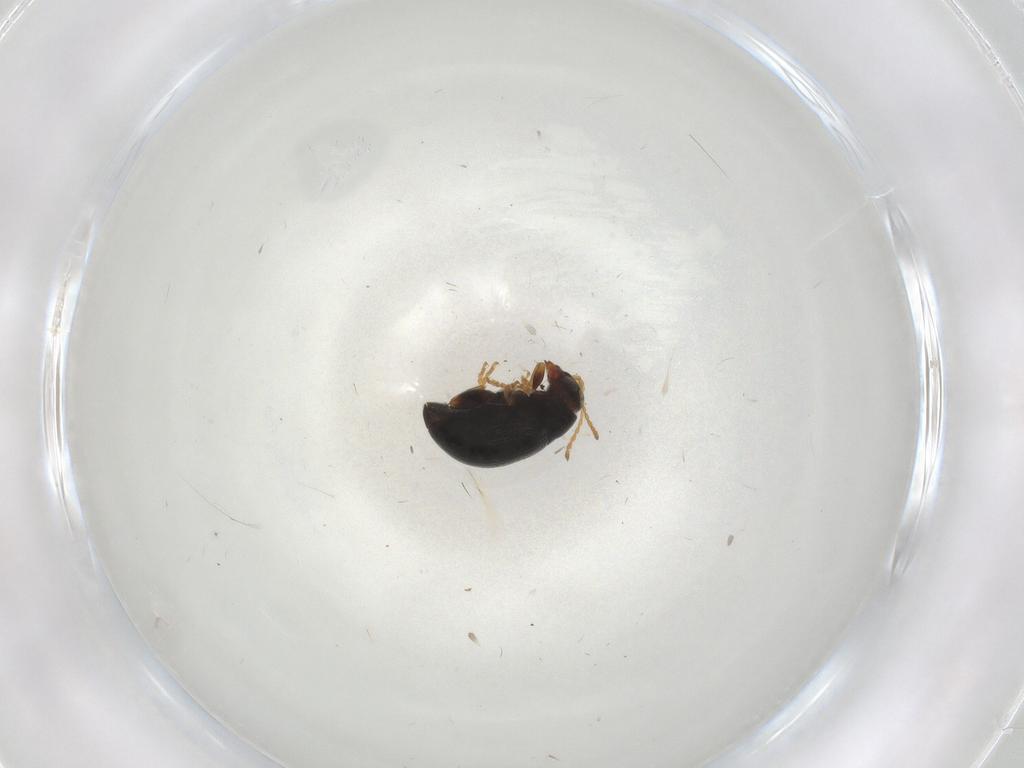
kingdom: Animalia
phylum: Arthropoda
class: Insecta
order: Coleoptera
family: Chrysomelidae
